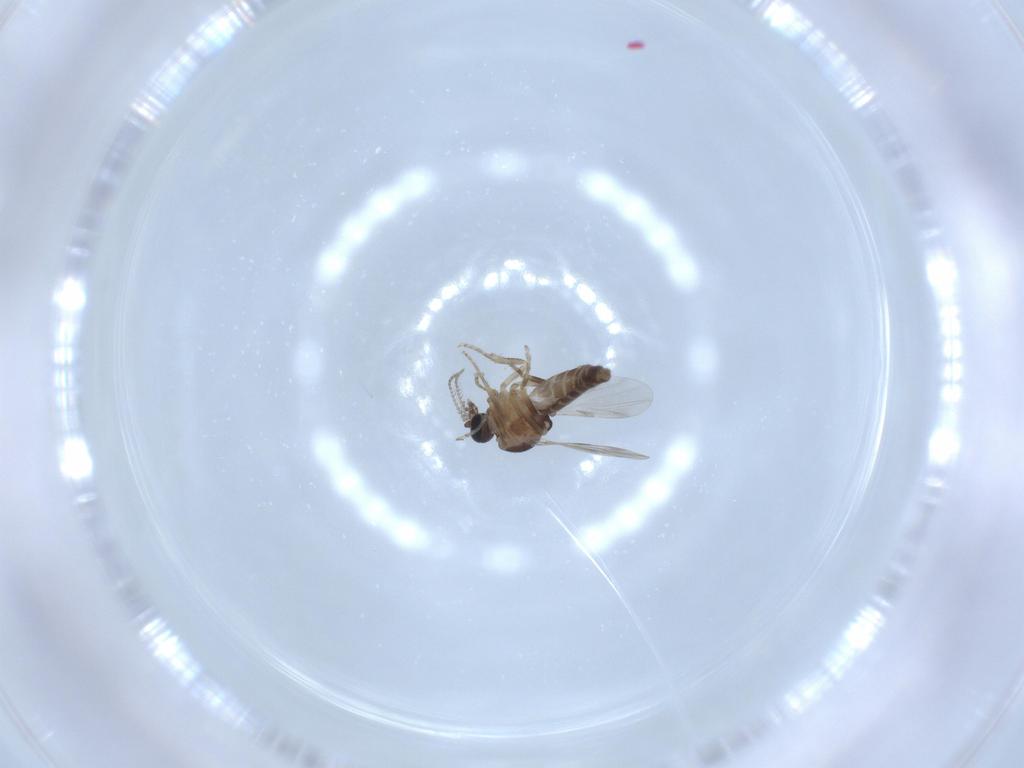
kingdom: Animalia
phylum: Arthropoda
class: Insecta
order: Diptera
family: Ceratopogonidae
